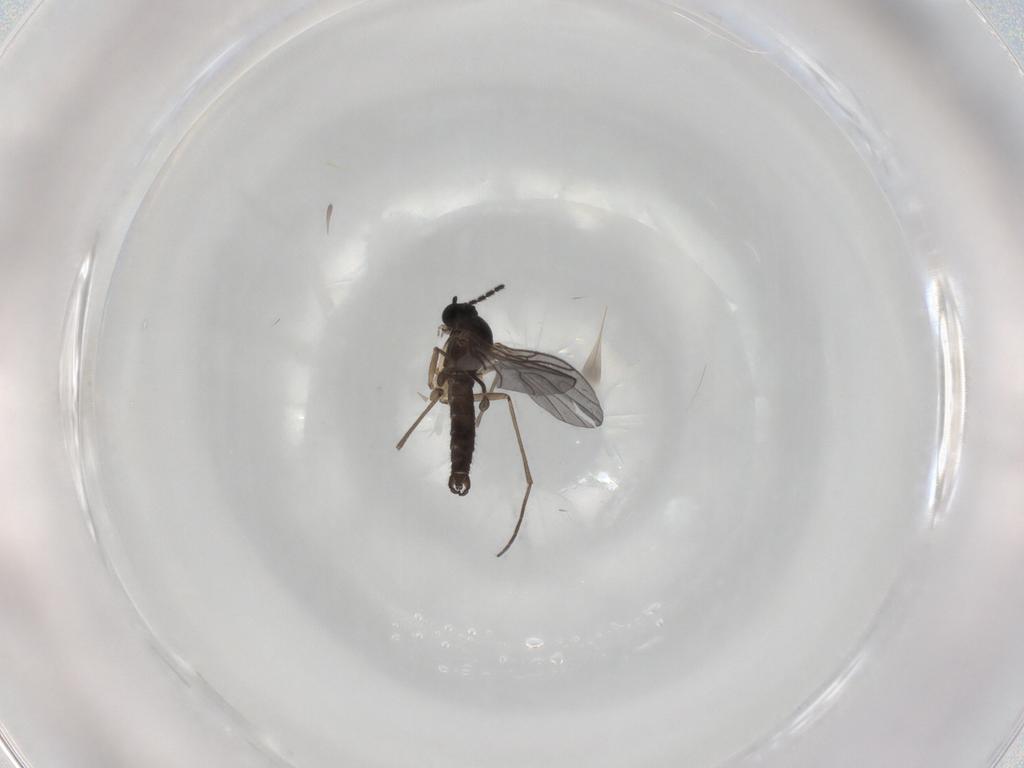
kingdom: Animalia
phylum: Arthropoda
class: Insecta
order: Diptera
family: Sciaridae
